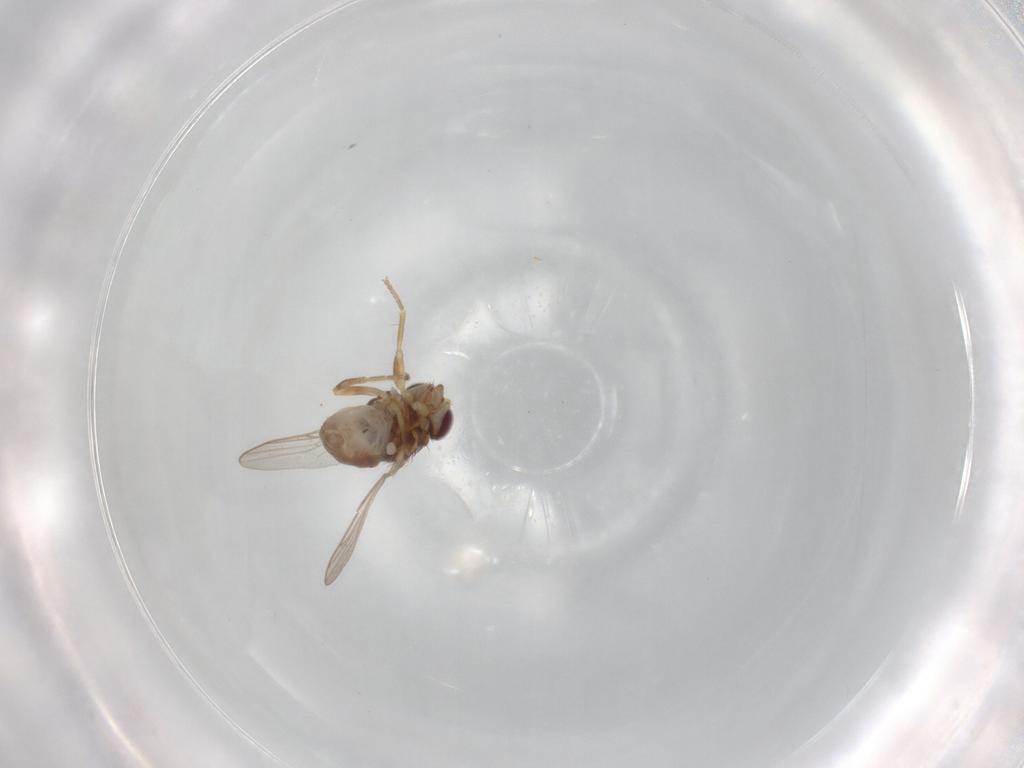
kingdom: Animalia
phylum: Arthropoda
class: Insecta
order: Diptera
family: Chloropidae
